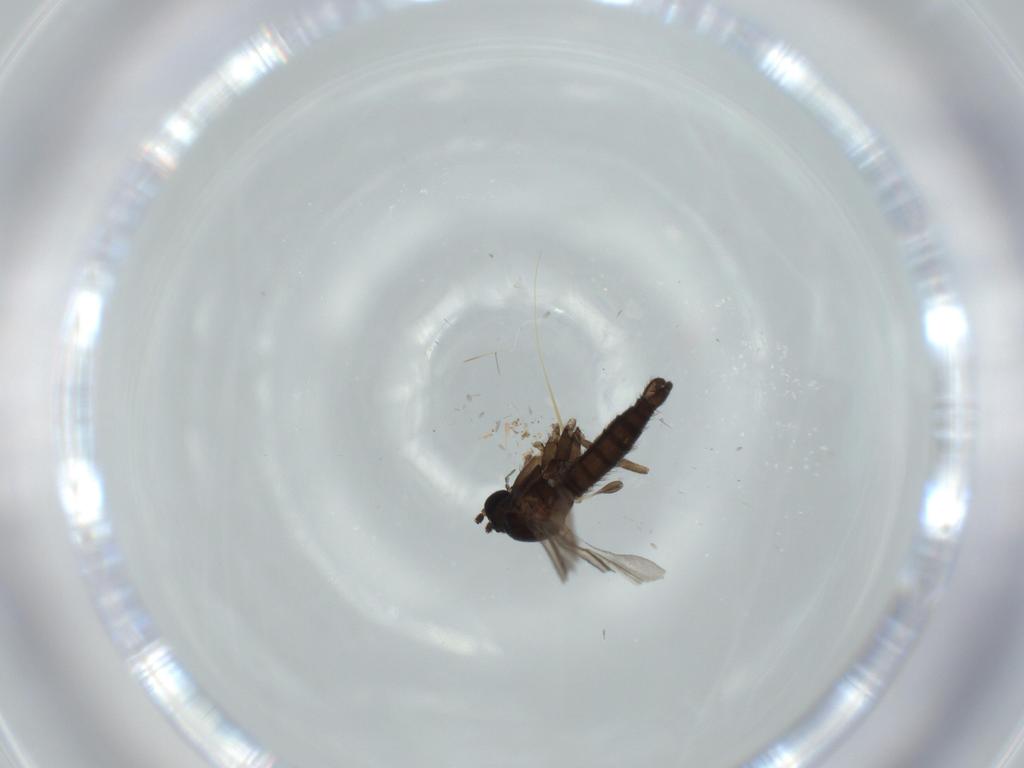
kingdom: Animalia
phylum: Arthropoda
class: Insecta
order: Diptera
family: Sciaridae
